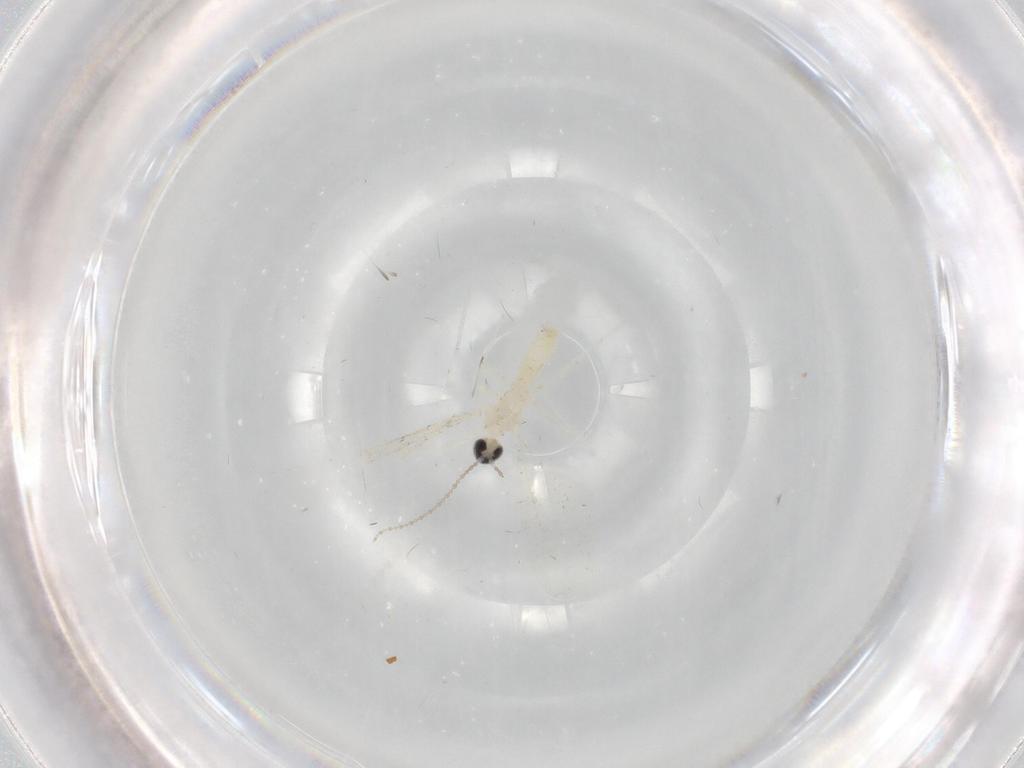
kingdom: Animalia
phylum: Arthropoda
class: Insecta
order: Diptera
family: Cecidomyiidae
